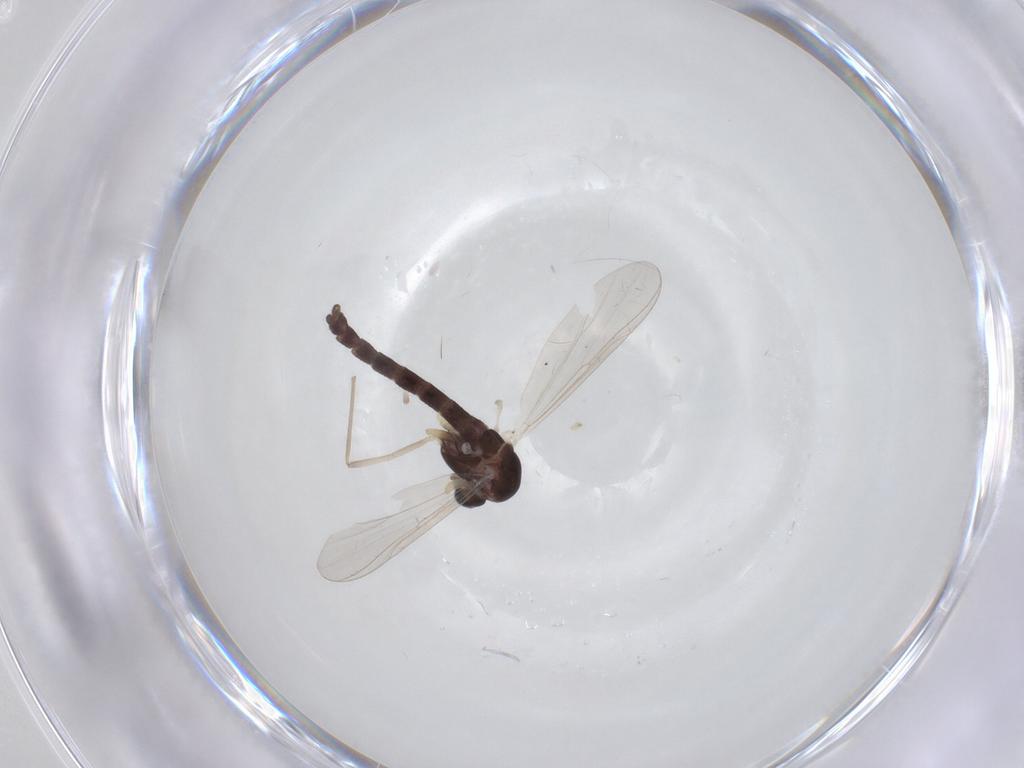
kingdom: Animalia
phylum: Arthropoda
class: Insecta
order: Diptera
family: Chironomidae
